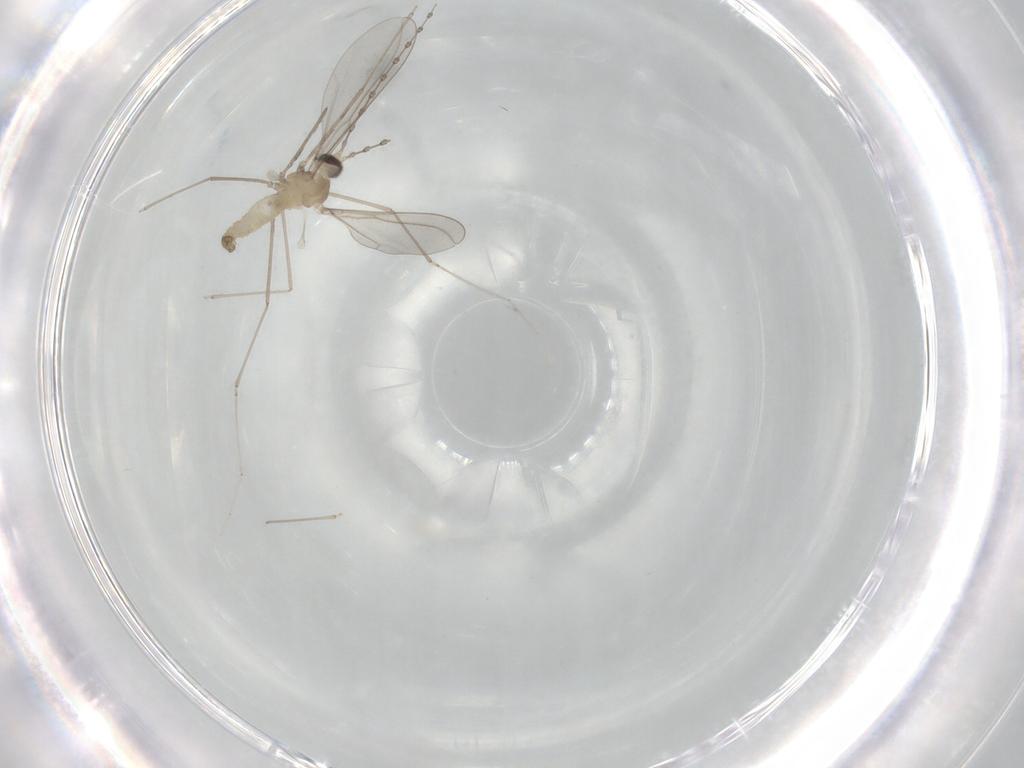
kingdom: Animalia
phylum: Arthropoda
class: Insecta
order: Diptera
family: Cecidomyiidae
